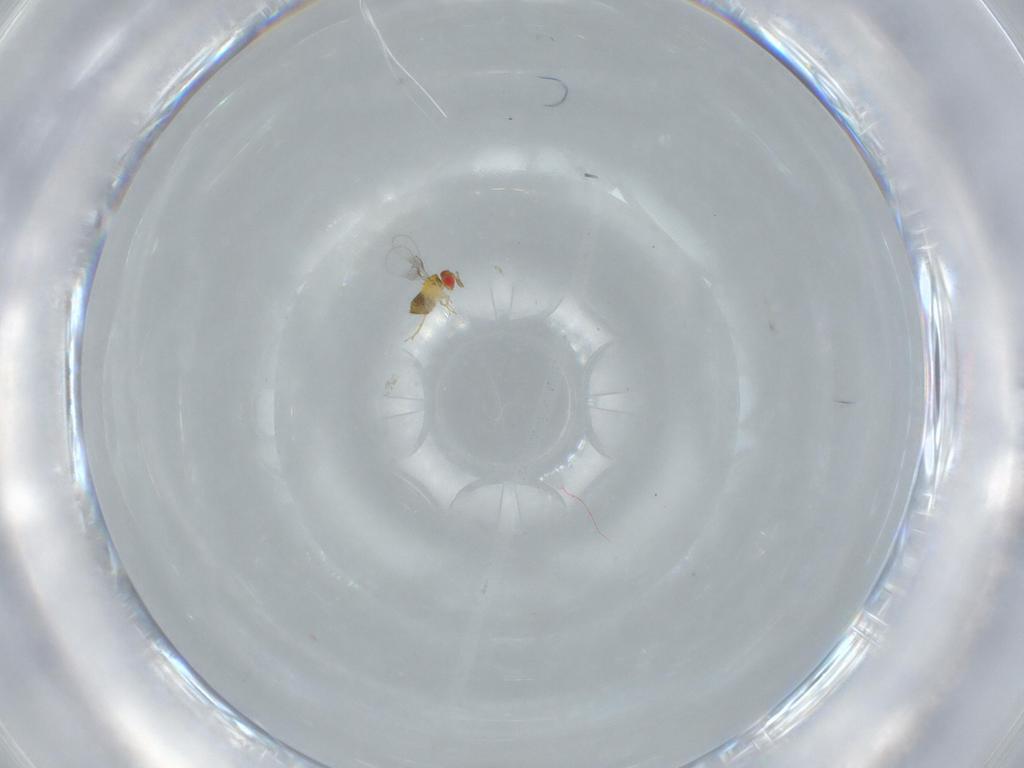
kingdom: Animalia
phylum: Arthropoda
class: Insecta
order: Hymenoptera
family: Trichogrammatidae
